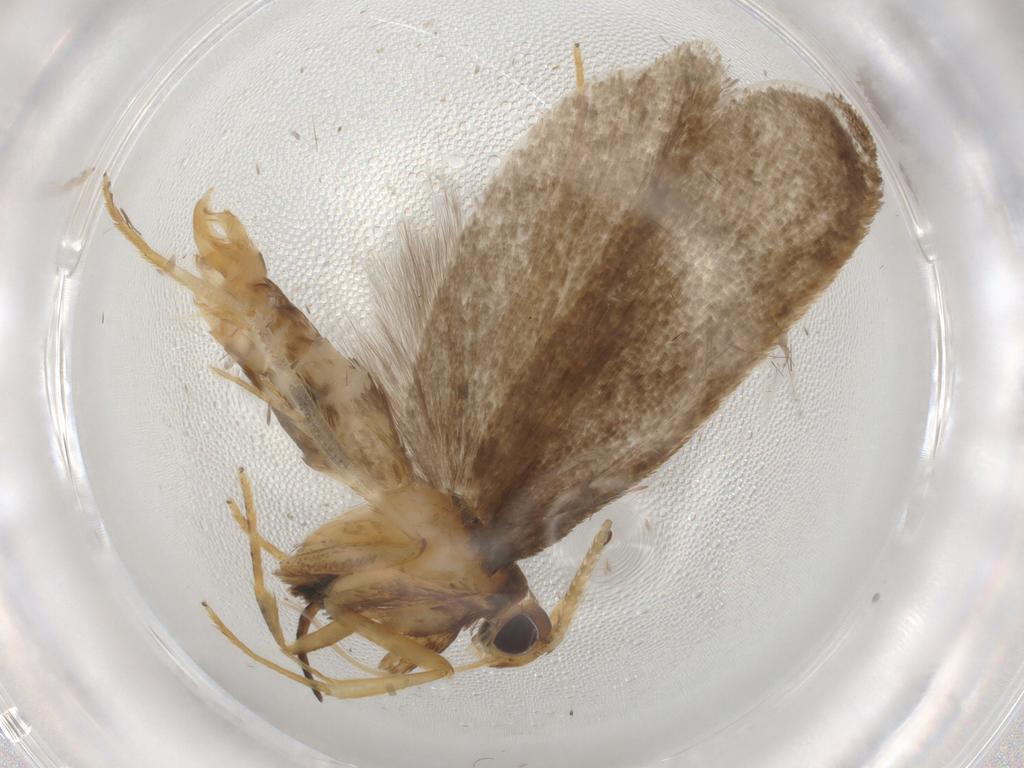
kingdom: Animalia
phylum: Arthropoda
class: Insecta
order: Lepidoptera
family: Lecithoceridae
